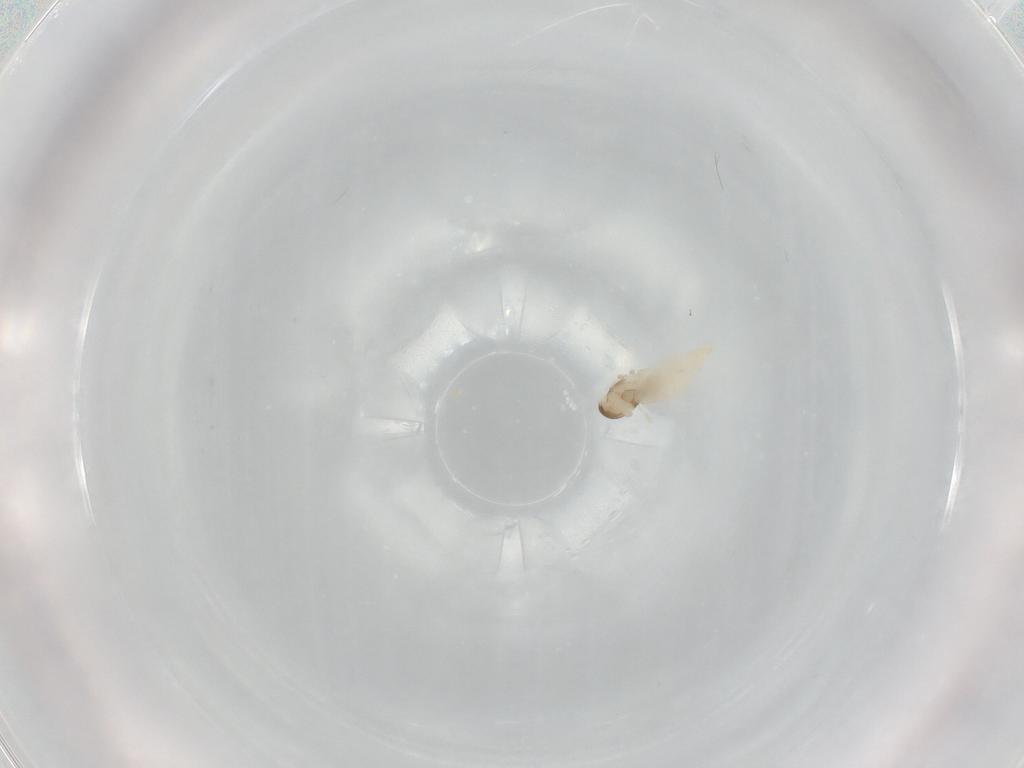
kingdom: Animalia
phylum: Arthropoda
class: Insecta
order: Diptera
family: Cecidomyiidae
